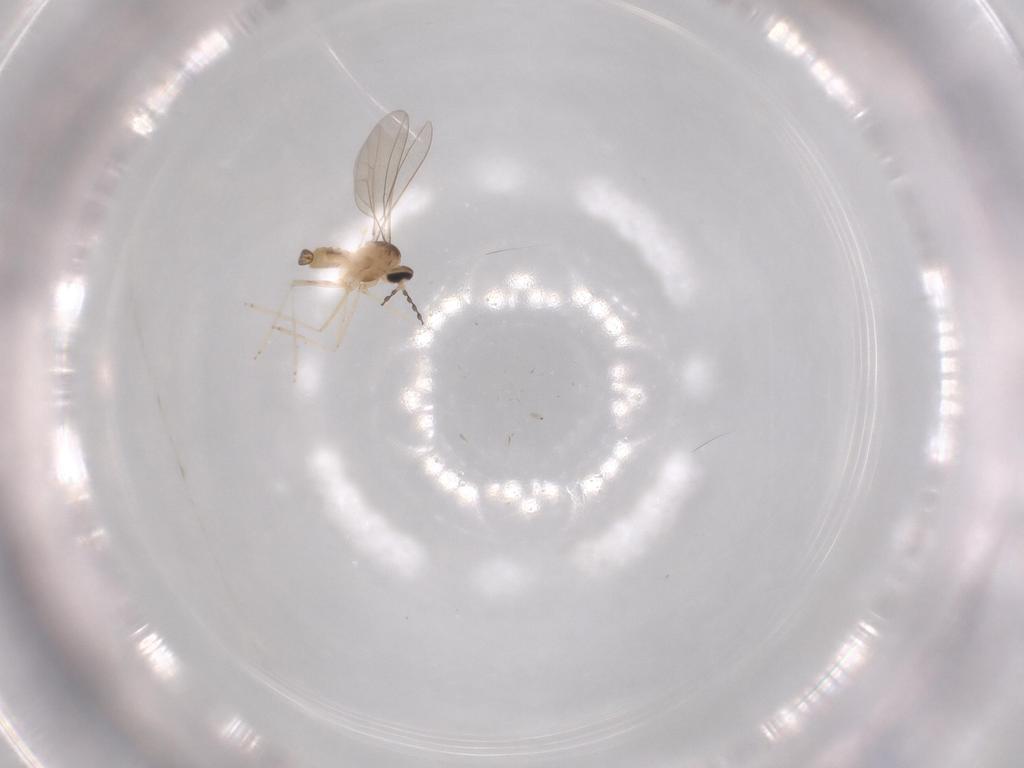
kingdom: Animalia
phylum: Arthropoda
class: Insecta
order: Diptera
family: Cecidomyiidae
